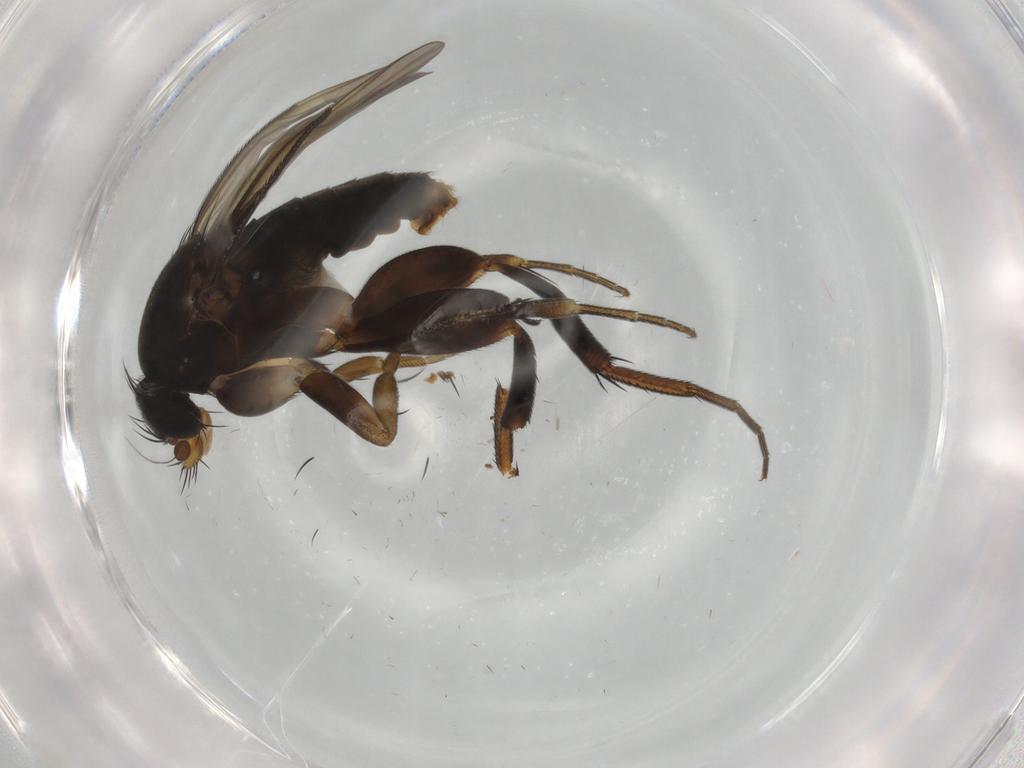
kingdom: Animalia
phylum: Arthropoda
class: Insecta
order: Diptera
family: Phoridae
